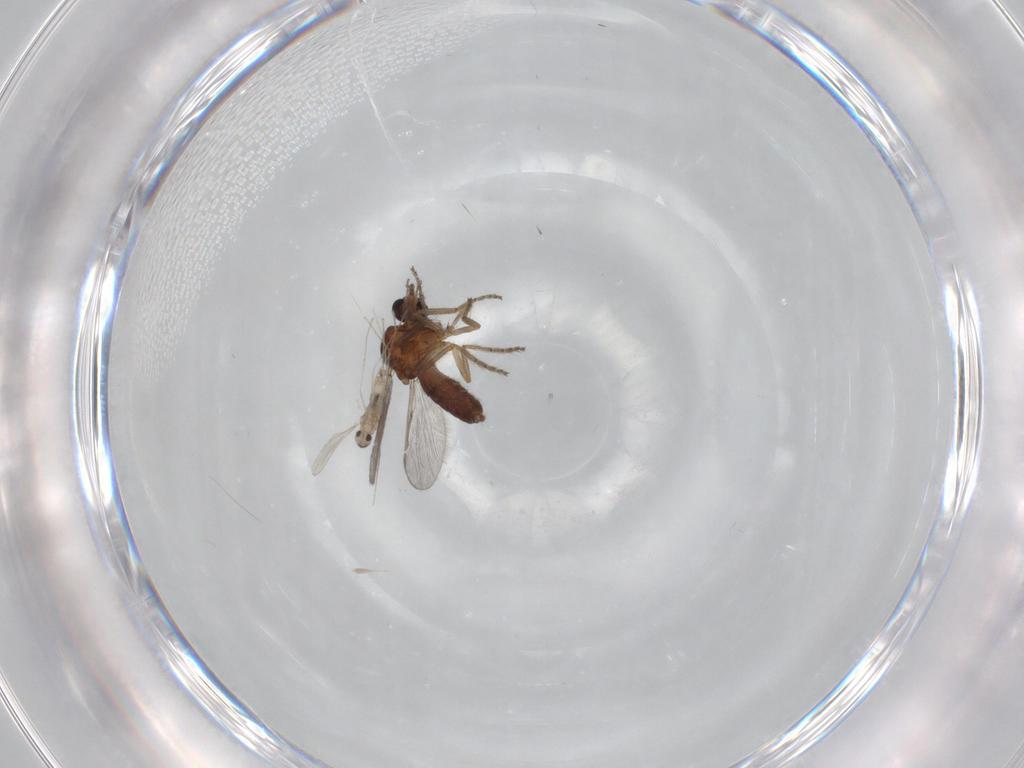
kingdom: Animalia
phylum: Arthropoda
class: Insecta
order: Diptera
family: Ceratopogonidae
